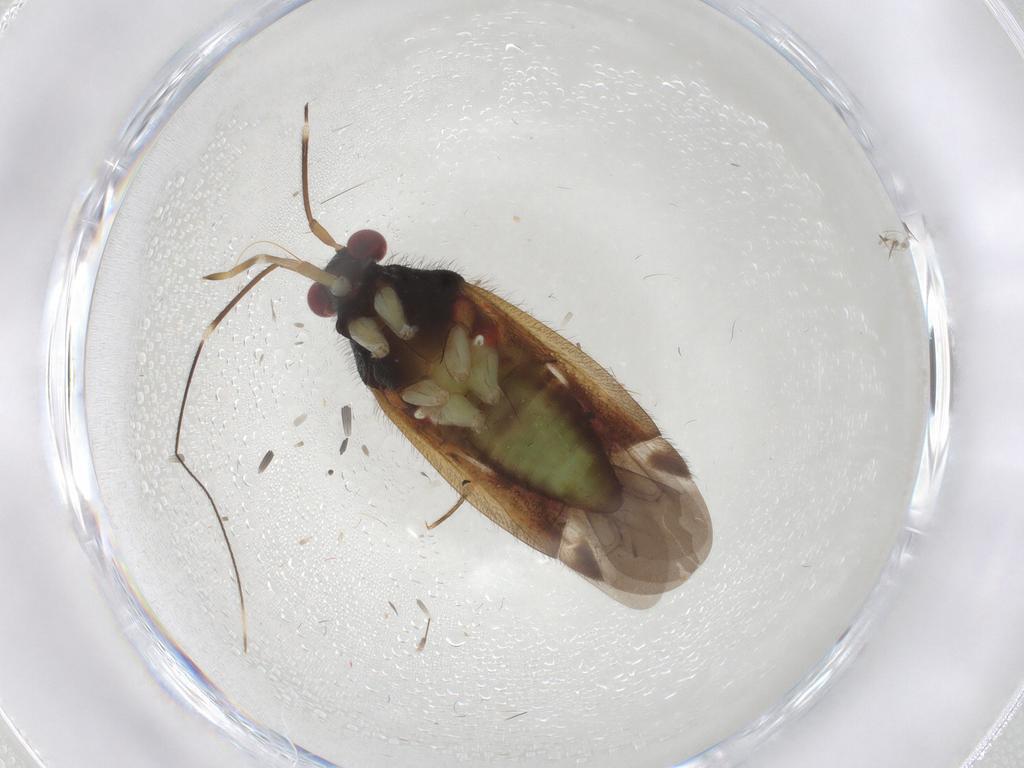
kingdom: Animalia
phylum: Arthropoda
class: Insecta
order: Hemiptera
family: Miridae
